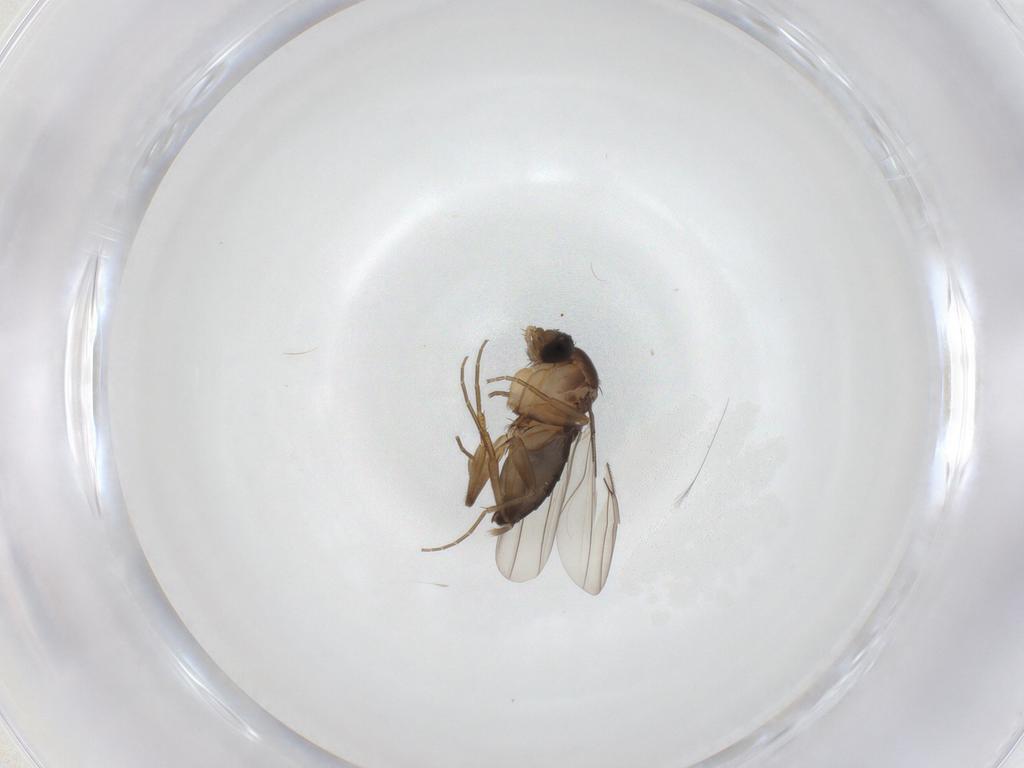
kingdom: Animalia
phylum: Arthropoda
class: Insecta
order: Diptera
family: Phoridae
